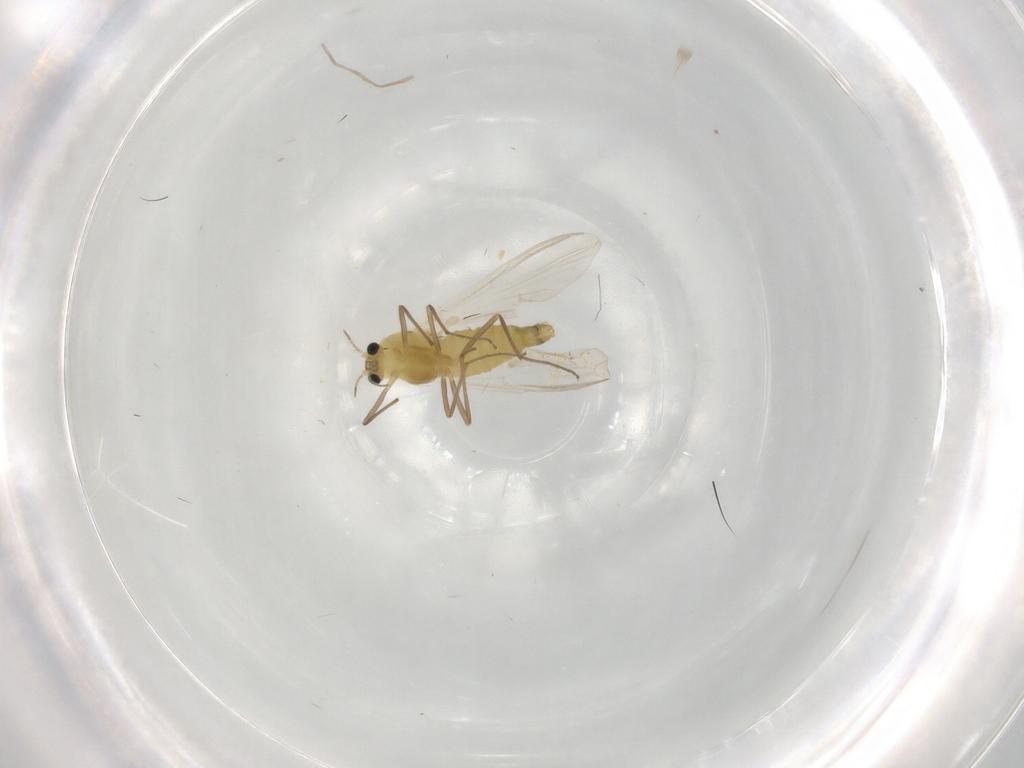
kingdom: Animalia
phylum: Arthropoda
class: Insecta
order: Diptera
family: Chironomidae
